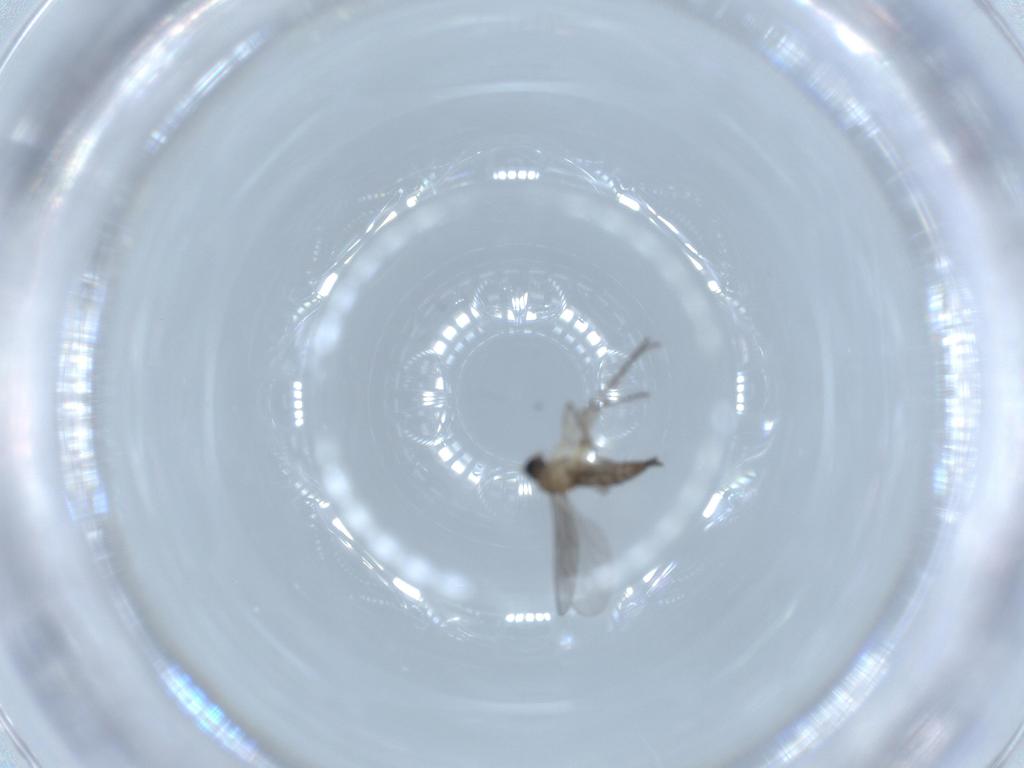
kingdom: Animalia
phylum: Arthropoda
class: Insecta
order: Diptera
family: Sciaridae
